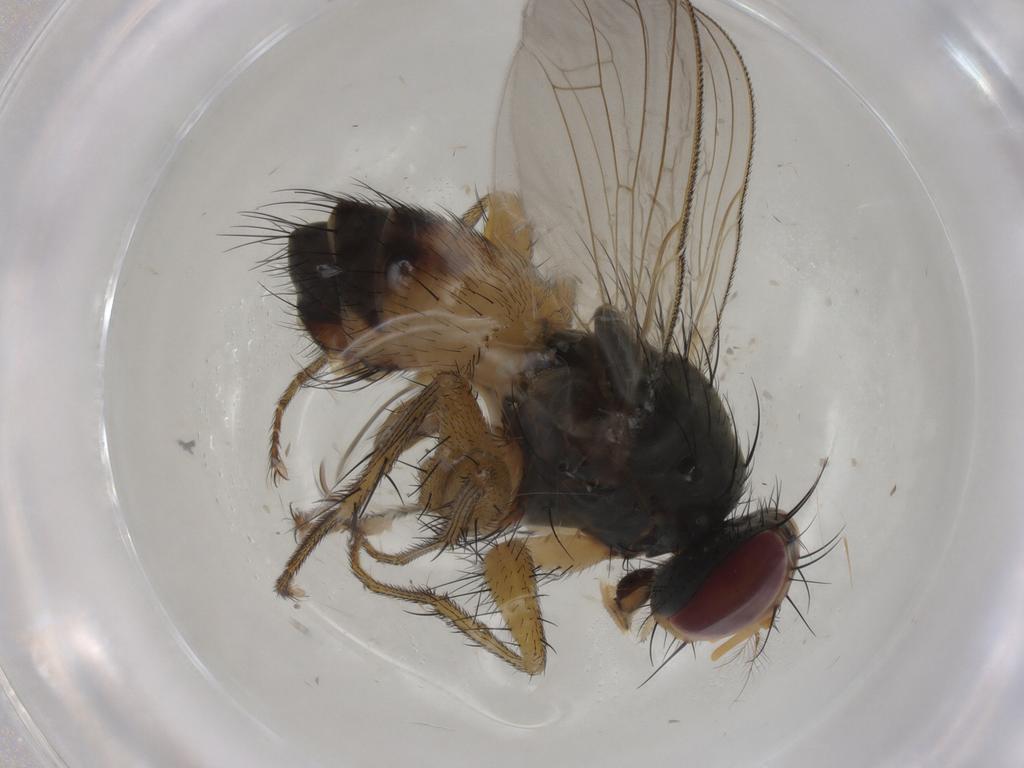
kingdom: Animalia
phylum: Arthropoda
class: Insecta
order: Diptera
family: Muscidae
